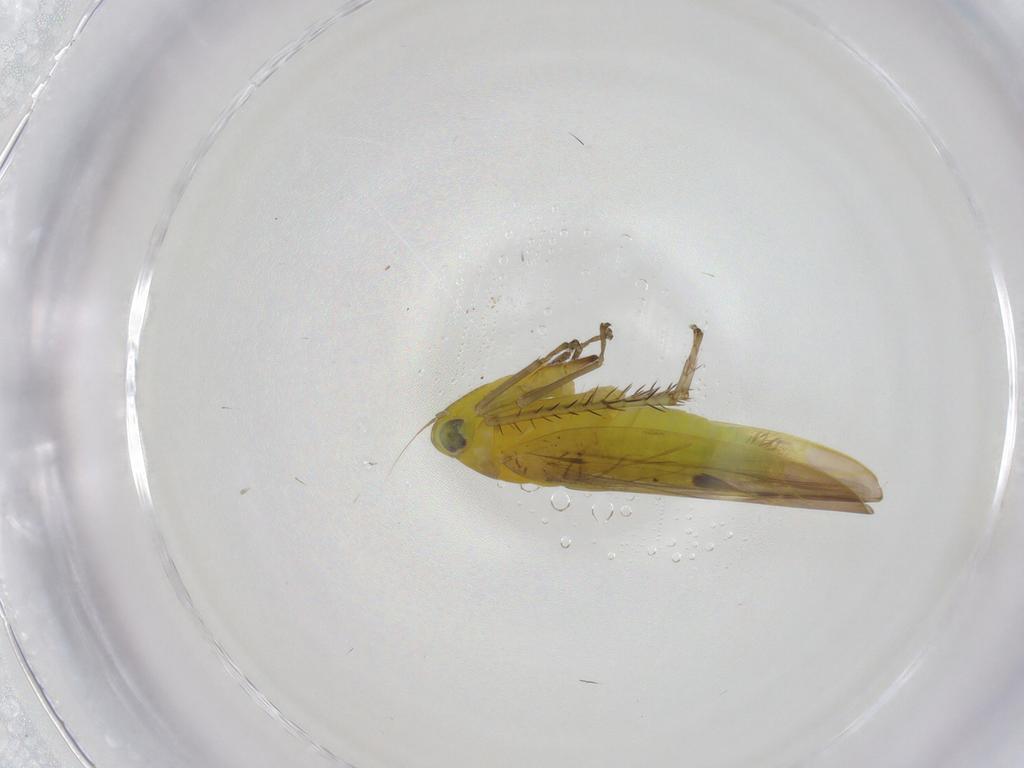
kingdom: Animalia
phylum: Arthropoda
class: Insecta
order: Hemiptera
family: Cicadellidae
